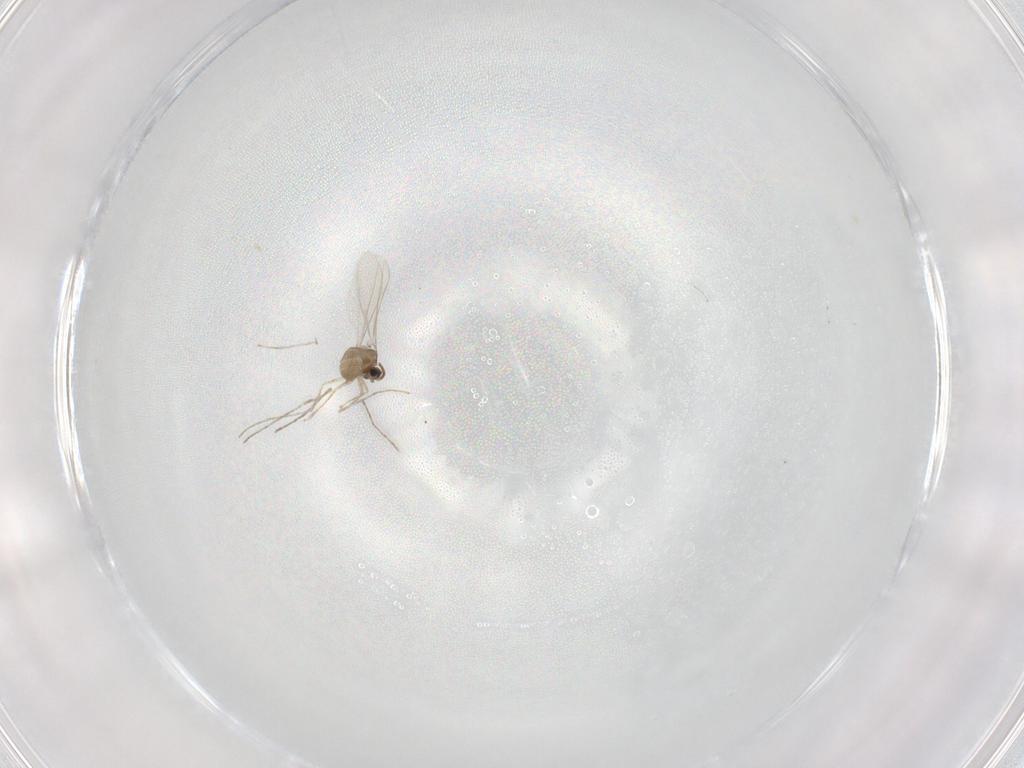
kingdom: Animalia
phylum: Arthropoda
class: Insecta
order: Diptera
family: Cecidomyiidae
